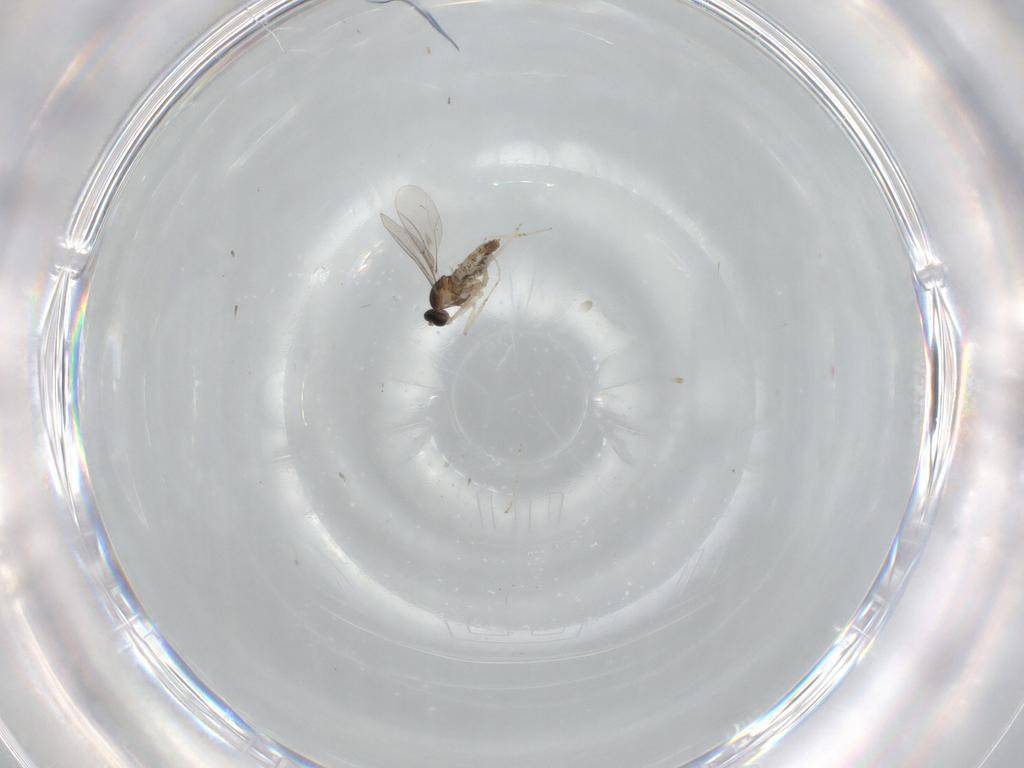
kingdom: Animalia
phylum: Arthropoda
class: Insecta
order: Diptera
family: Cecidomyiidae
